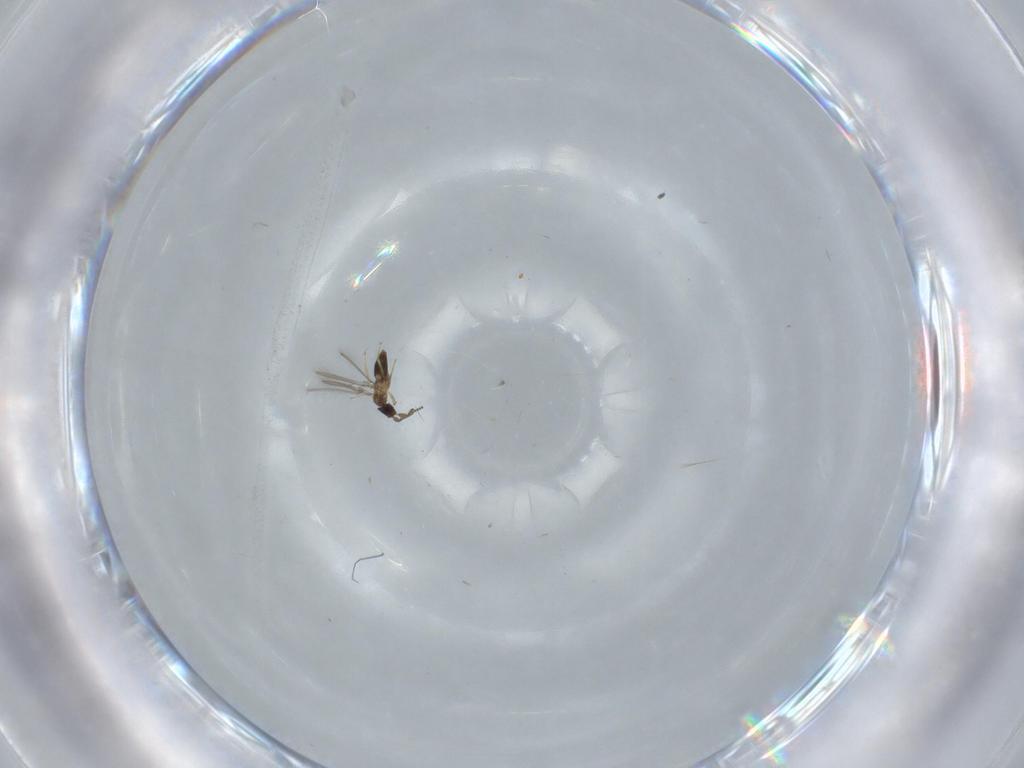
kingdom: Animalia
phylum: Arthropoda
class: Insecta
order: Hymenoptera
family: Mymaridae
